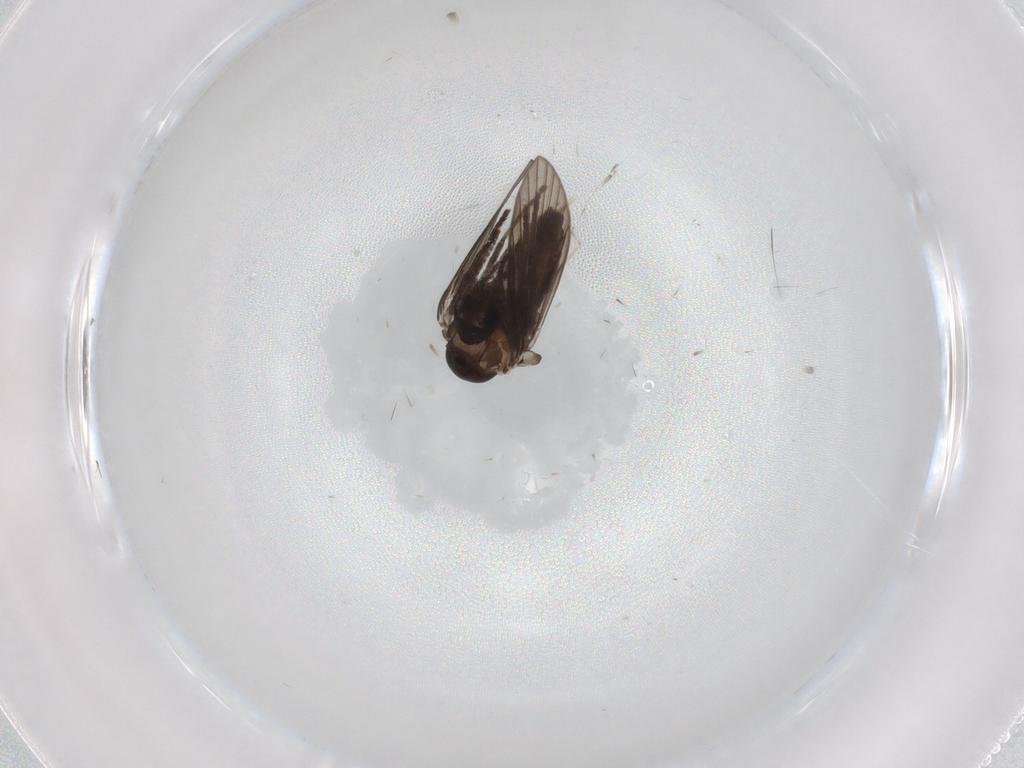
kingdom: Animalia
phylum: Arthropoda
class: Insecta
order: Diptera
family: Psychodidae
